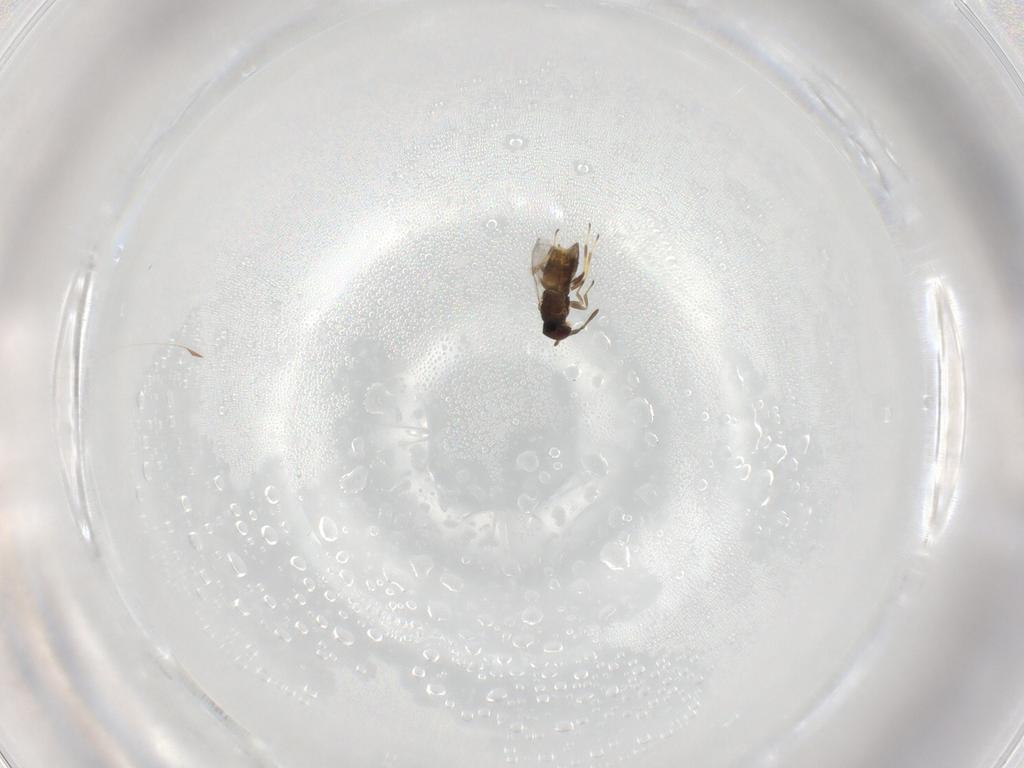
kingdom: Animalia
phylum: Arthropoda
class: Insecta
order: Hymenoptera
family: Encyrtidae
